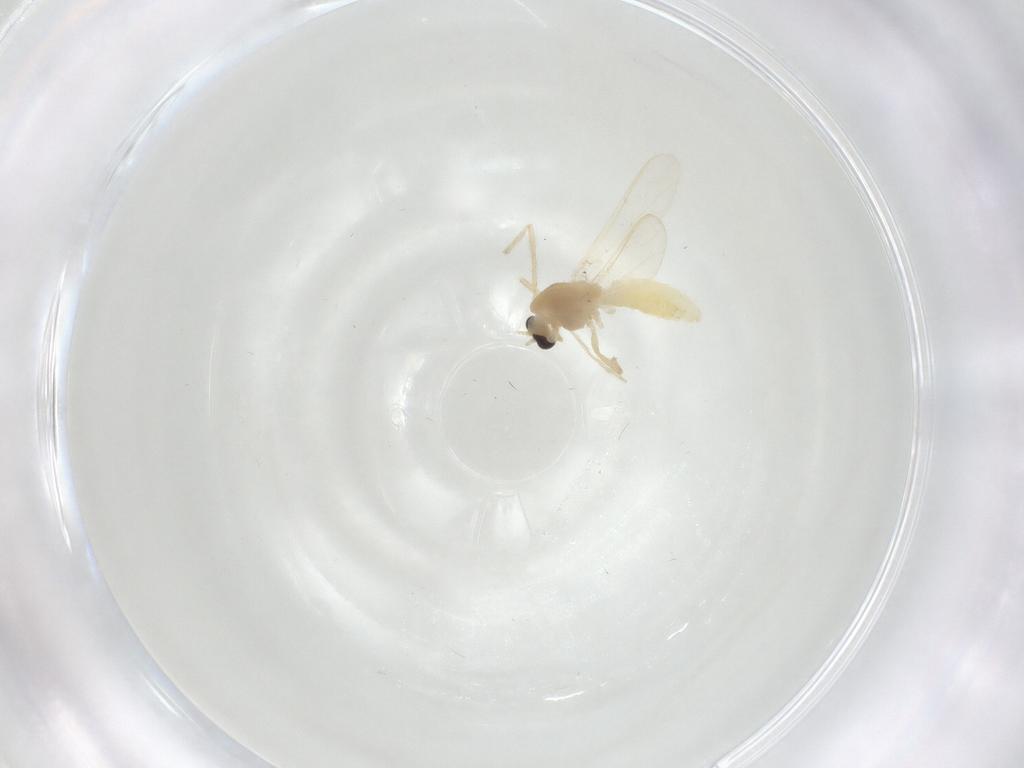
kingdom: Animalia
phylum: Arthropoda
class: Insecta
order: Diptera
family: Chironomidae
